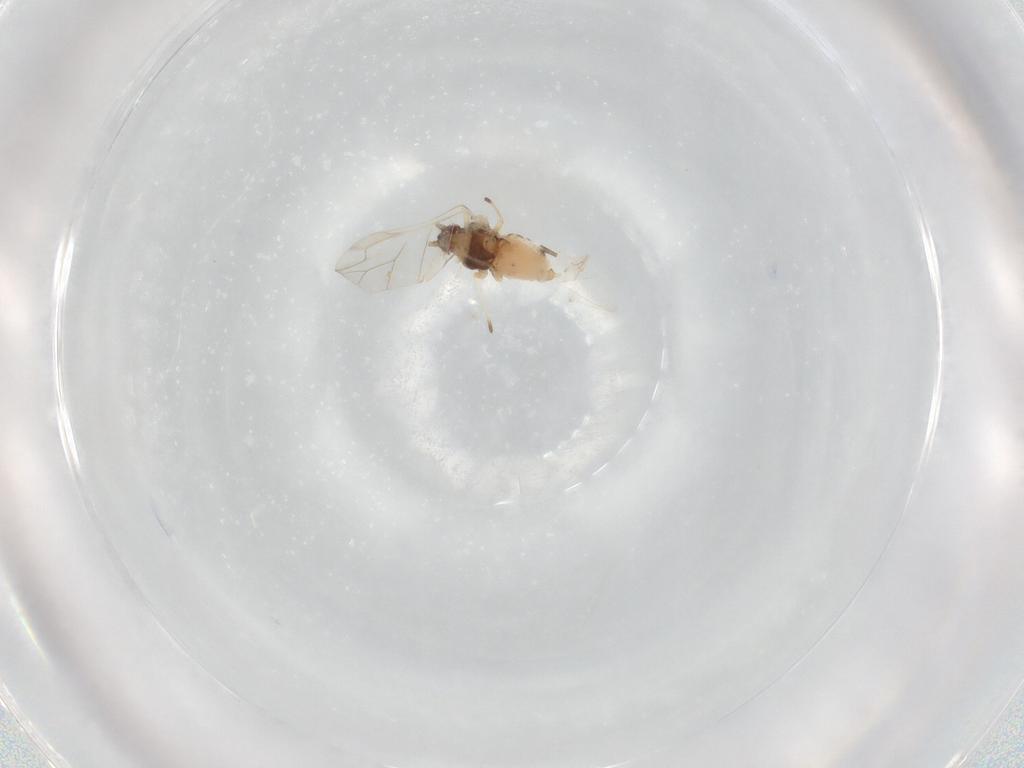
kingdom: Animalia
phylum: Arthropoda
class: Insecta
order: Hemiptera
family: Aphididae
